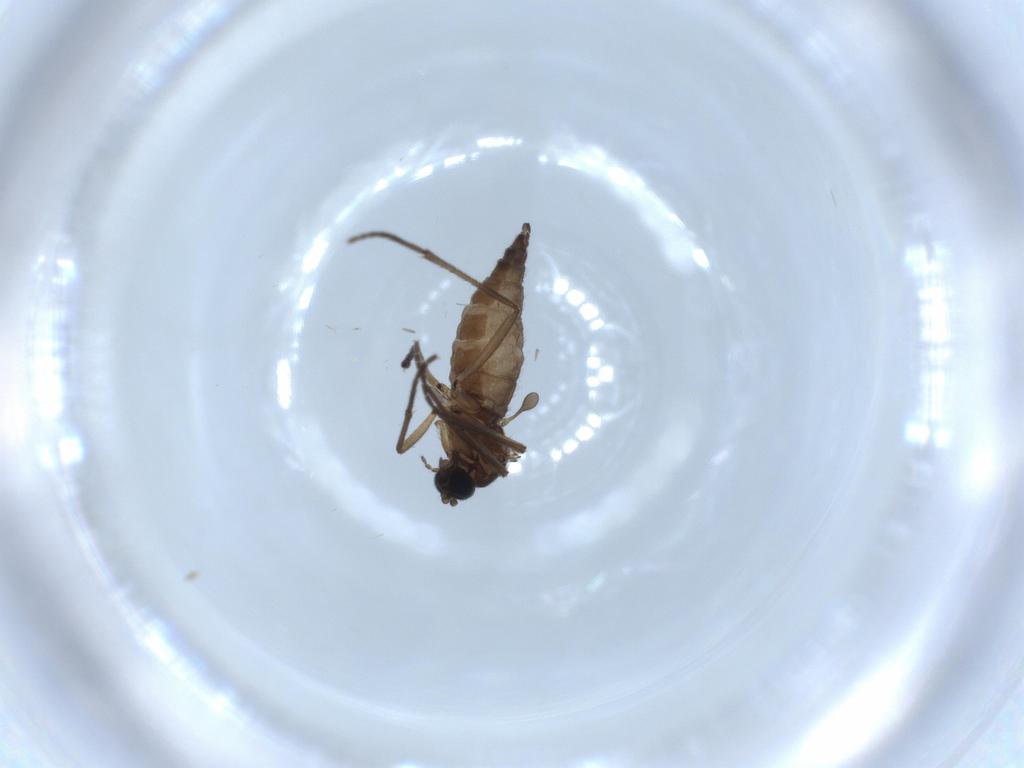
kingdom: Animalia
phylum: Arthropoda
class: Insecta
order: Diptera
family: Sciaridae
